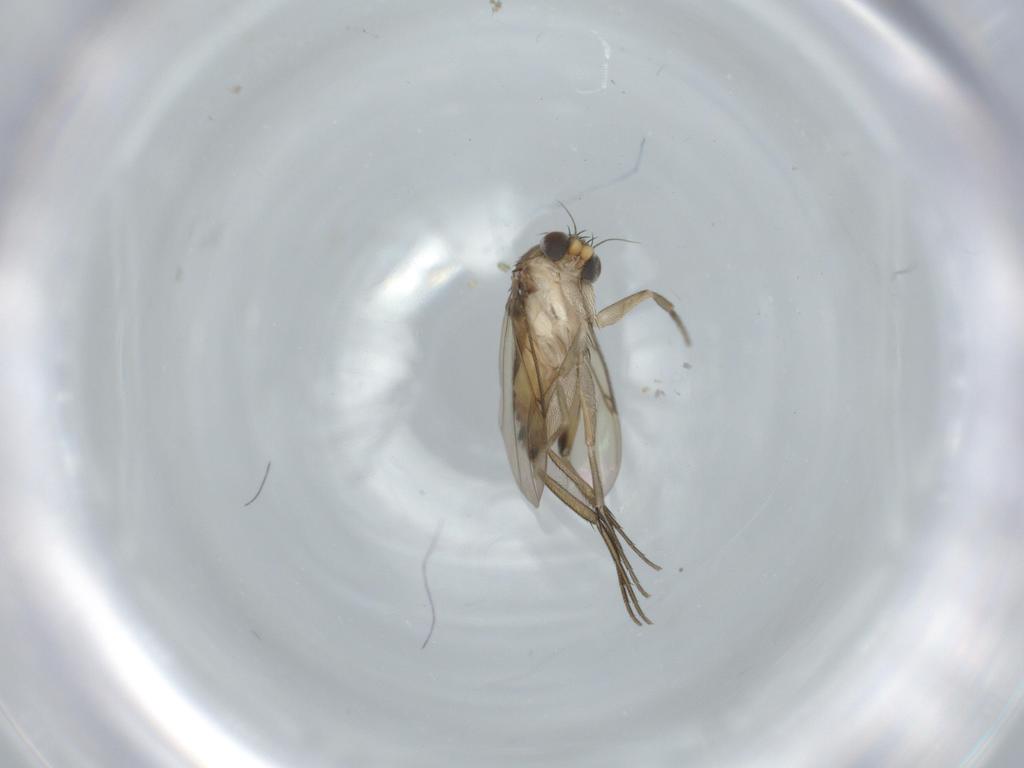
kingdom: Animalia
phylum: Arthropoda
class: Insecta
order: Diptera
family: Phoridae
